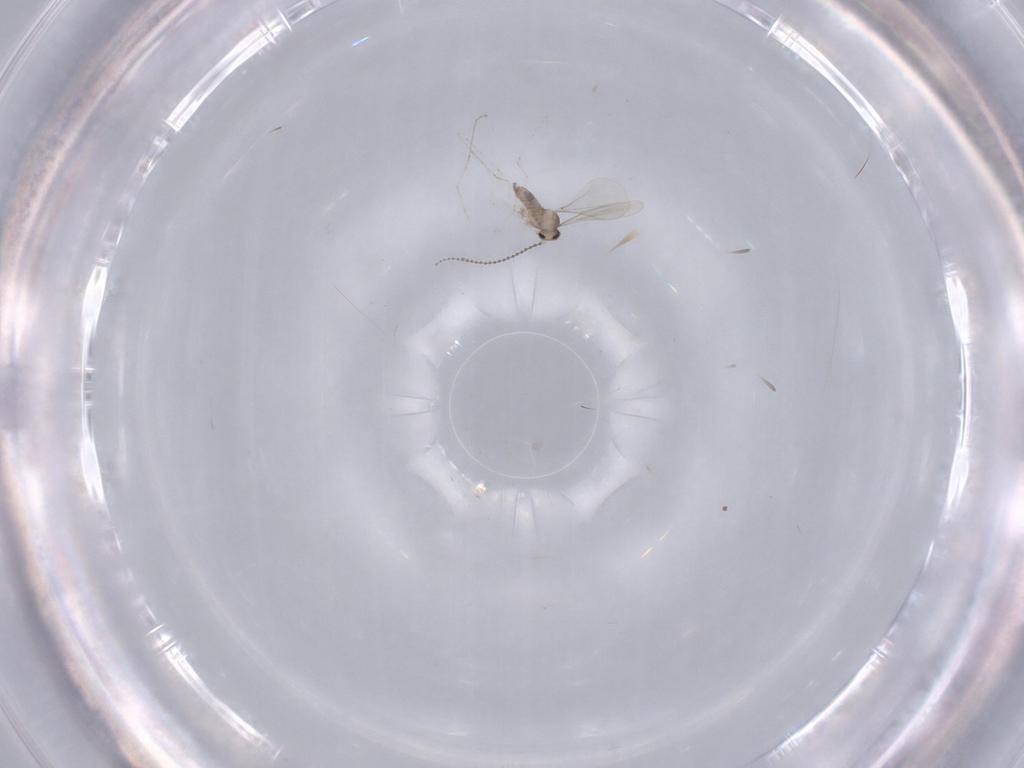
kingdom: Animalia
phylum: Arthropoda
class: Insecta
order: Diptera
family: Cecidomyiidae
